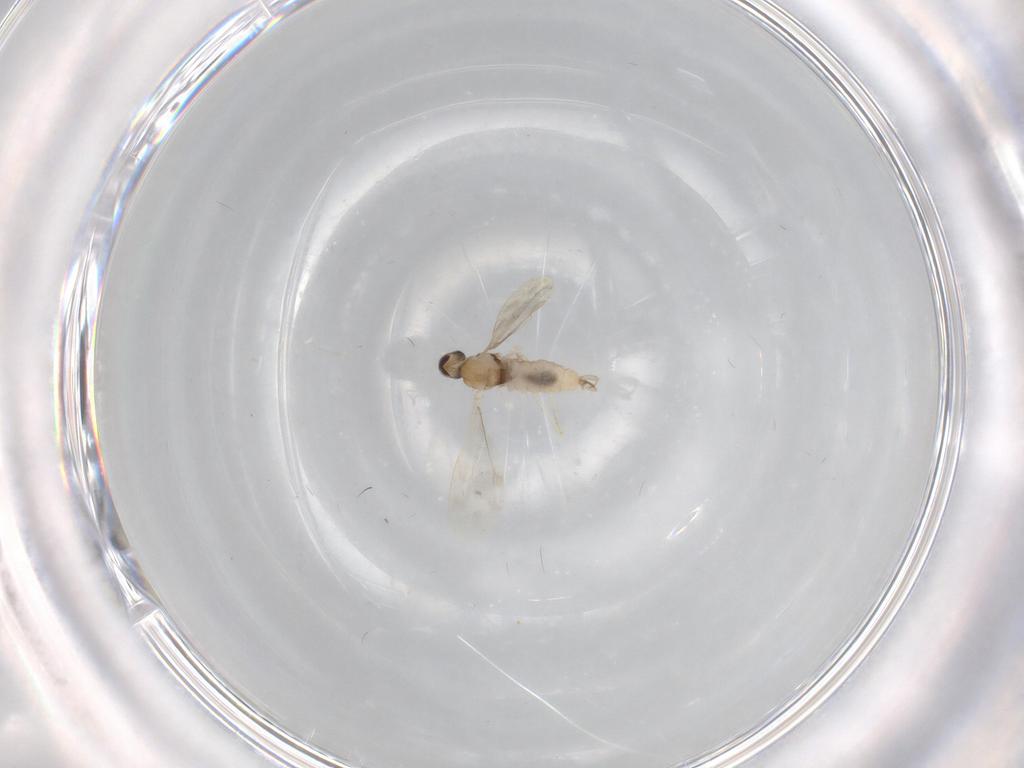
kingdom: Animalia
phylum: Arthropoda
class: Insecta
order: Diptera
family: Cecidomyiidae
